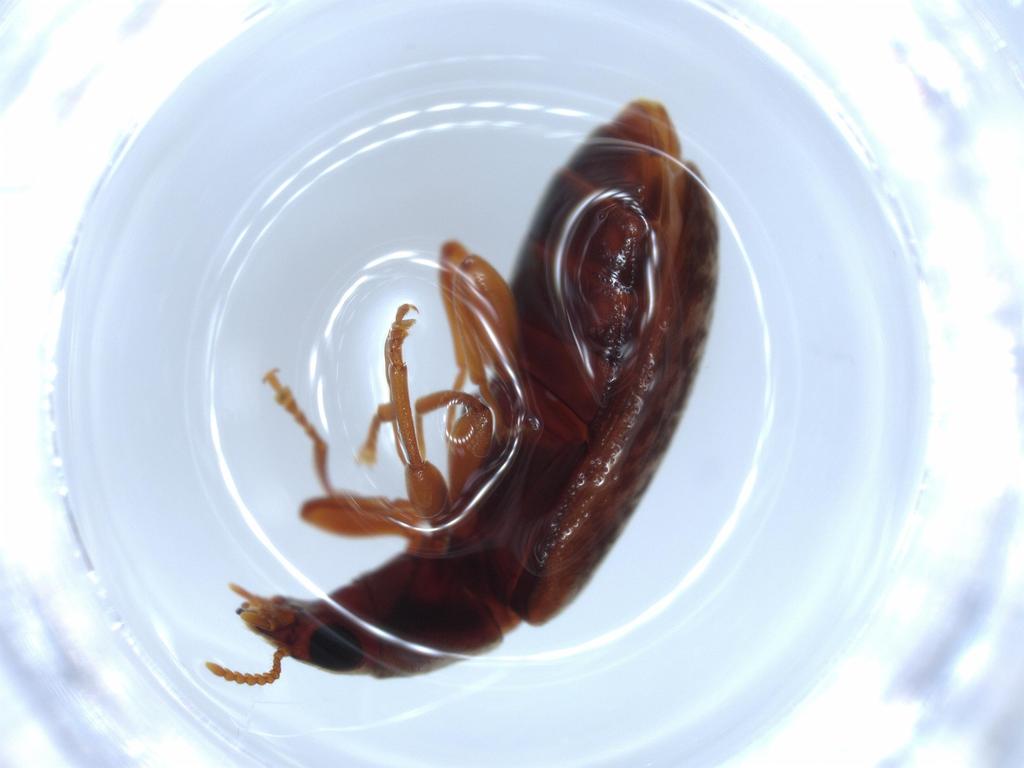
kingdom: Animalia
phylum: Arthropoda
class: Insecta
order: Coleoptera
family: Mycteridae
